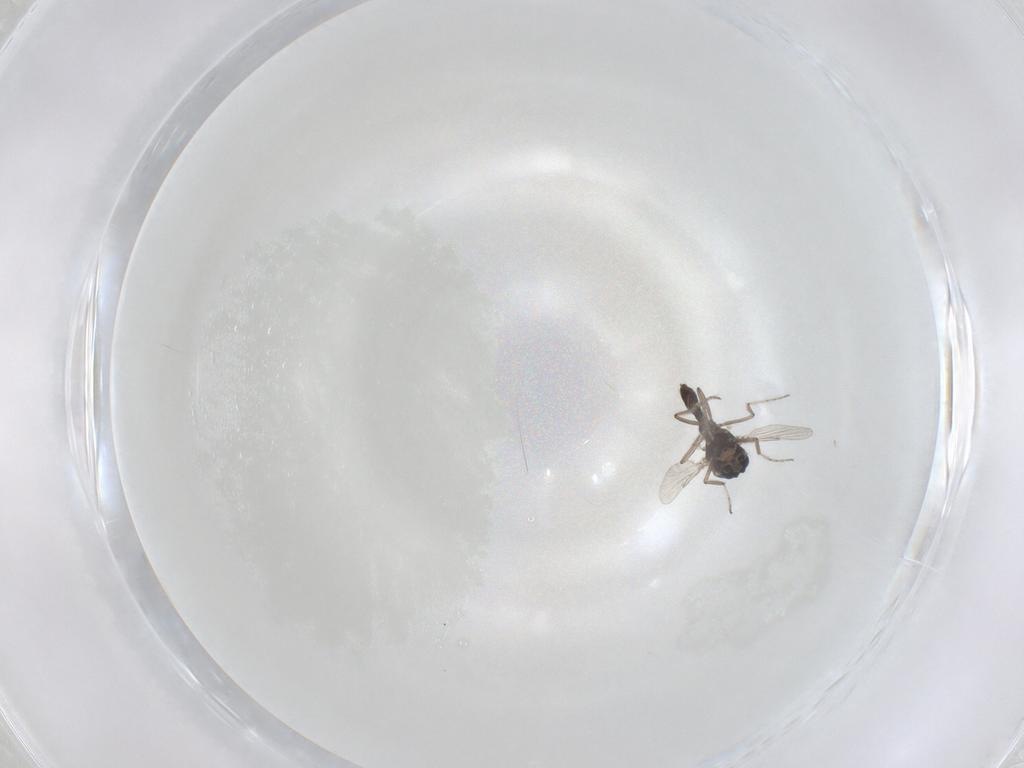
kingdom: Animalia
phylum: Arthropoda
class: Insecta
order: Diptera
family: Ceratopogonidae
